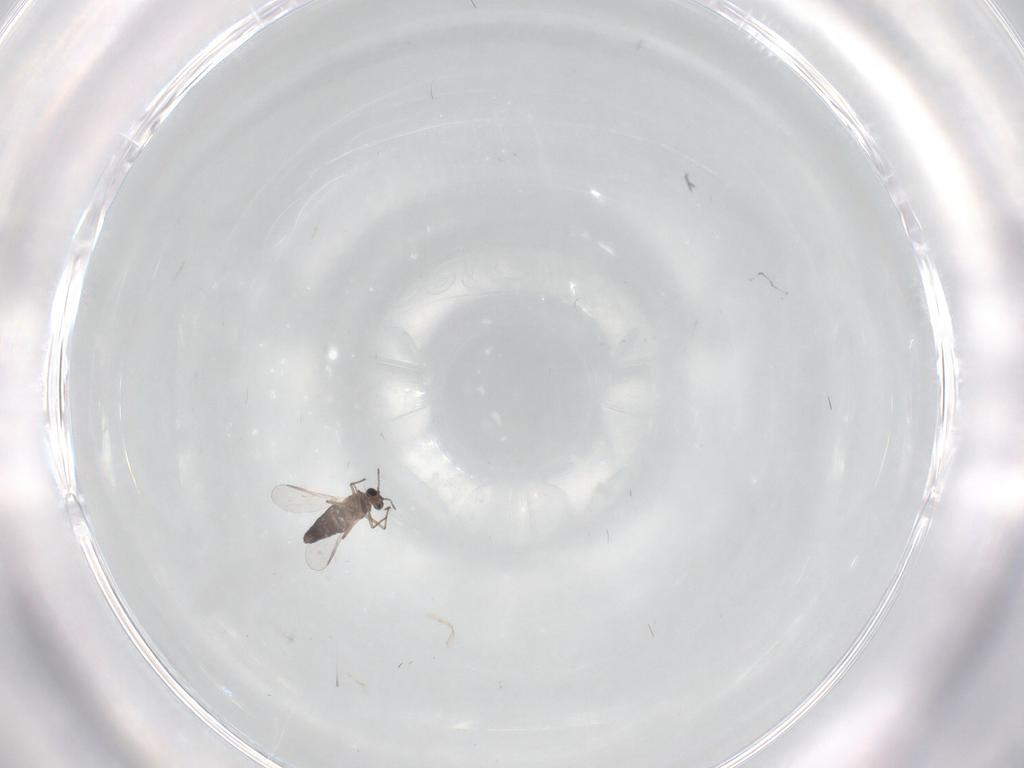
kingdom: Animalia
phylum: Arthropoda
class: Insecta
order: Diptera
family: Chironomidae
